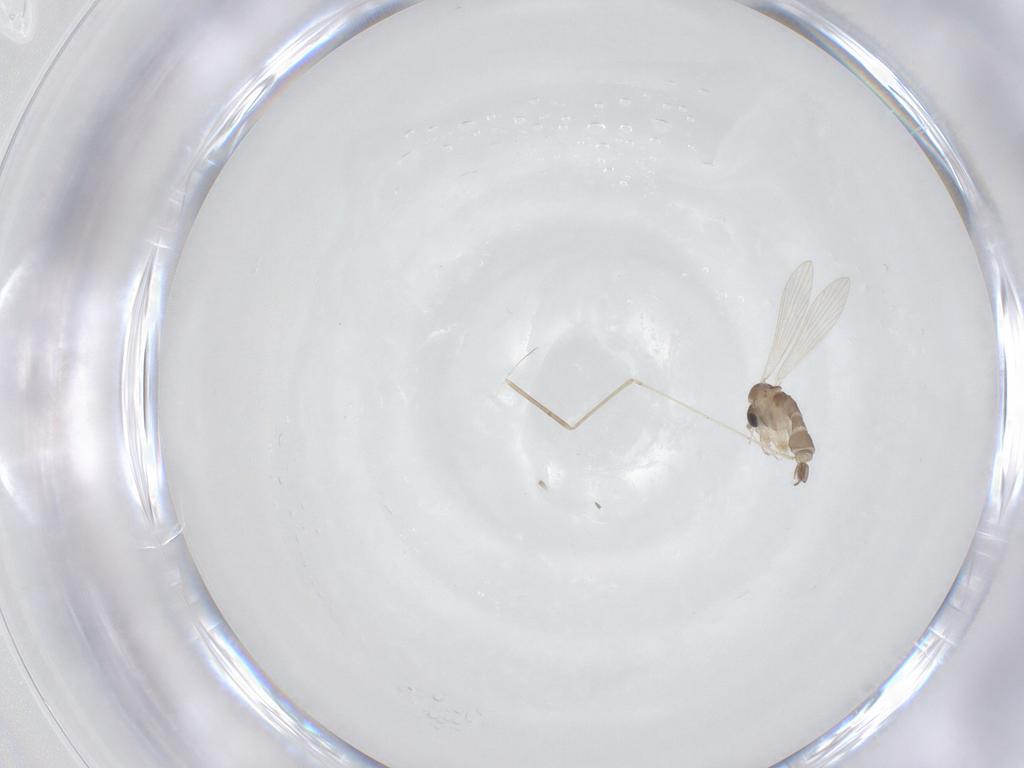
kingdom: Animalia
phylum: Arthropoda
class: Insecta
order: Diptera
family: Psychodidae
